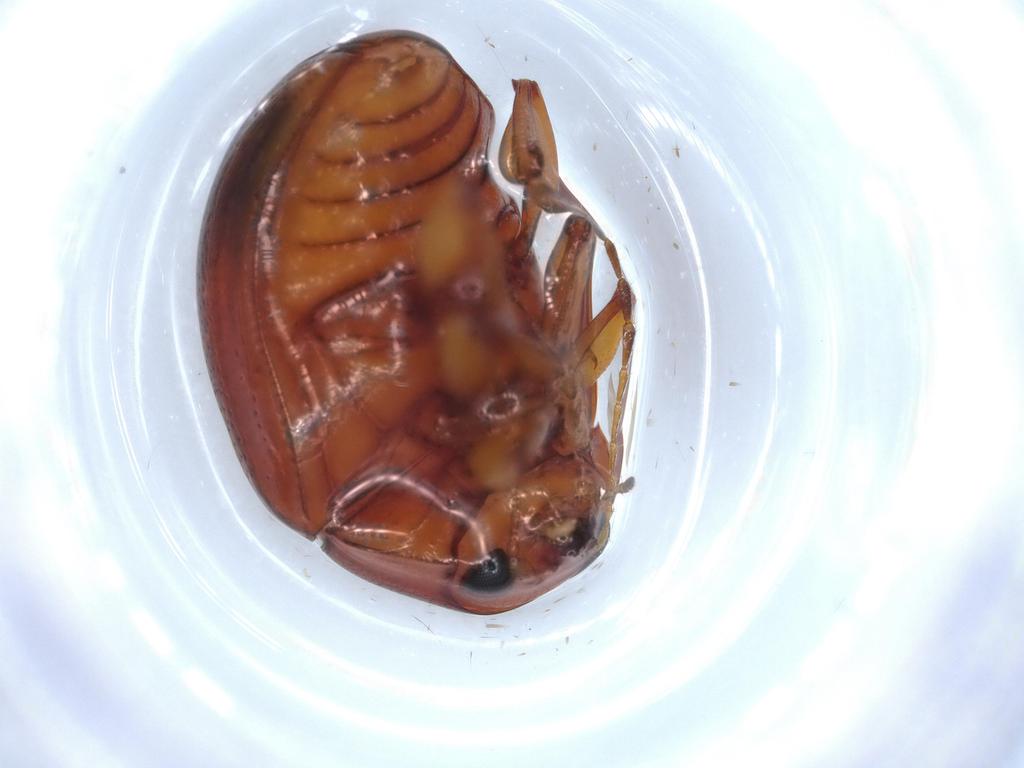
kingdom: Animalia
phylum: Arthropoda
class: Insecta
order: Coleoptera
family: Chrysomelidae
